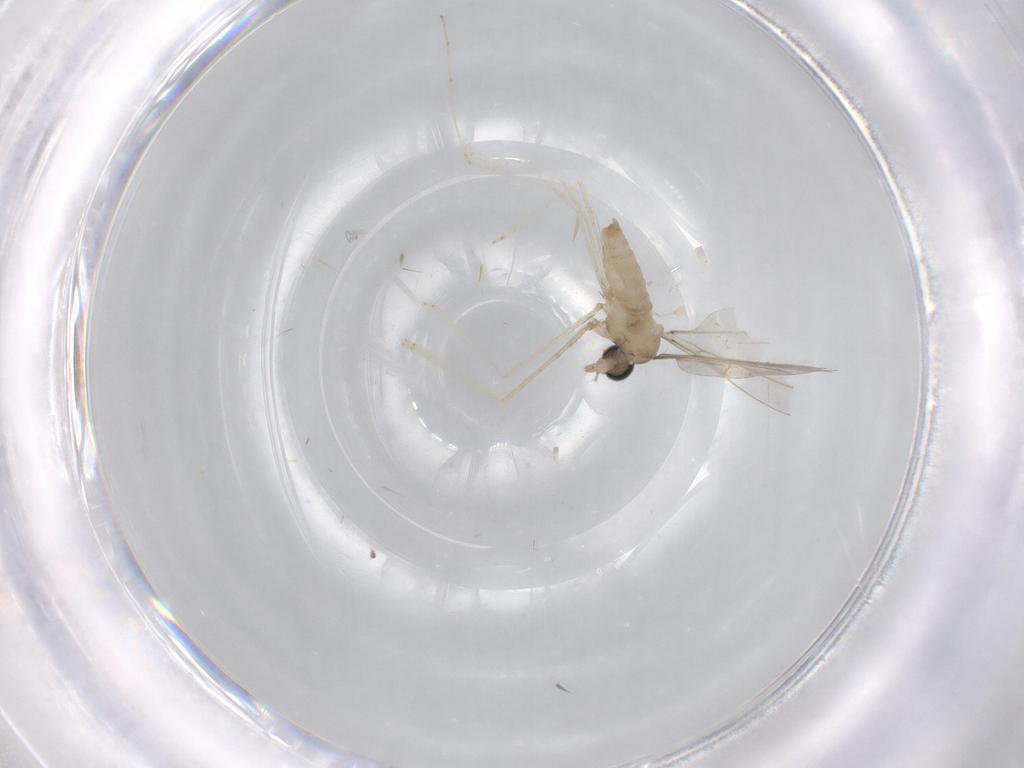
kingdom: Animalia
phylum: Arthropoda
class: Insecta
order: Diptera
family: Cecidomyiidae
